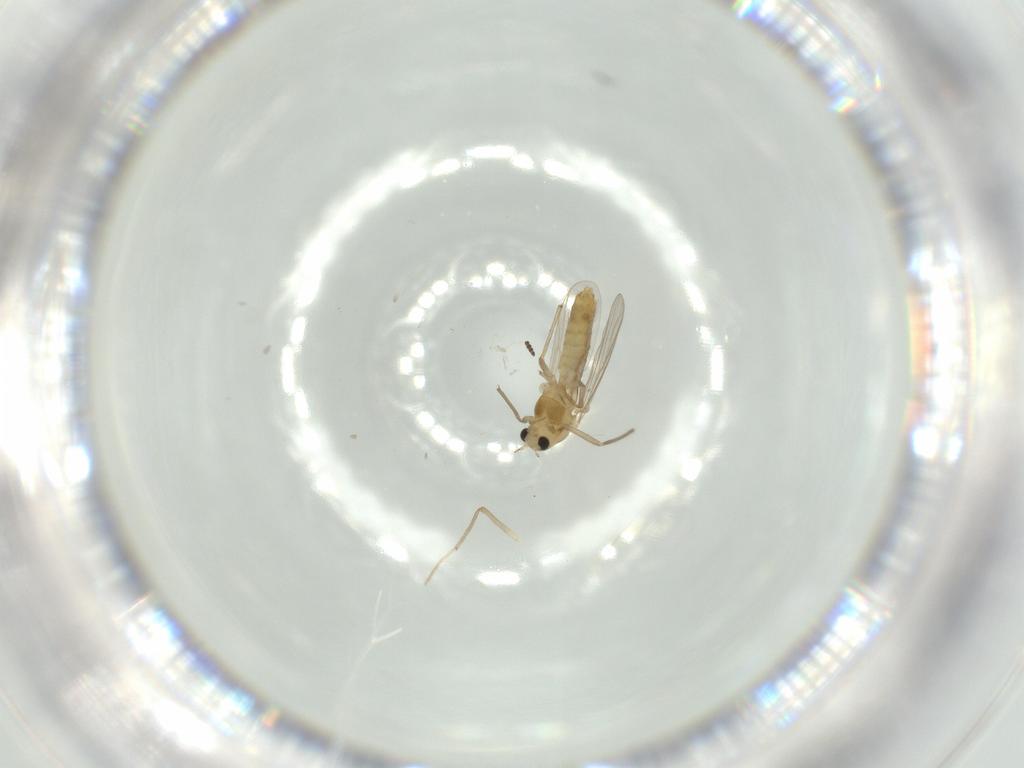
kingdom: Animalia
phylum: Arthropoda
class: Insecta
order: Diptera
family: Chironomidae
